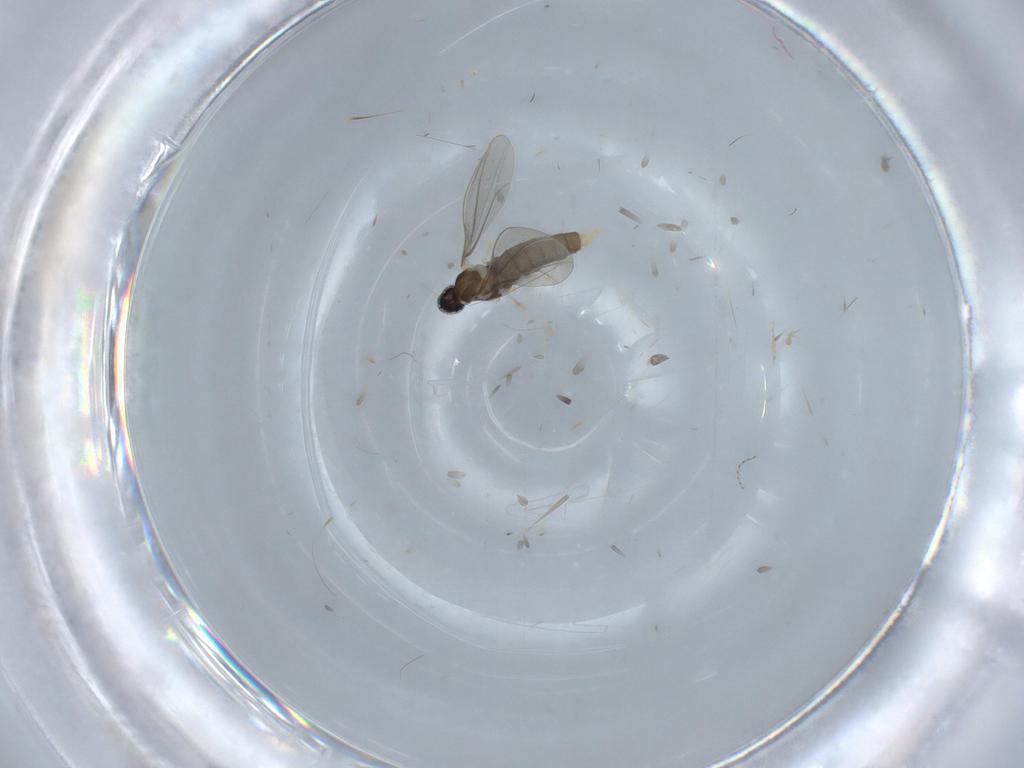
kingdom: Animalia
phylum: Arthropoda
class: Insecta
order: Diptera
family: Cecidomyiidae
